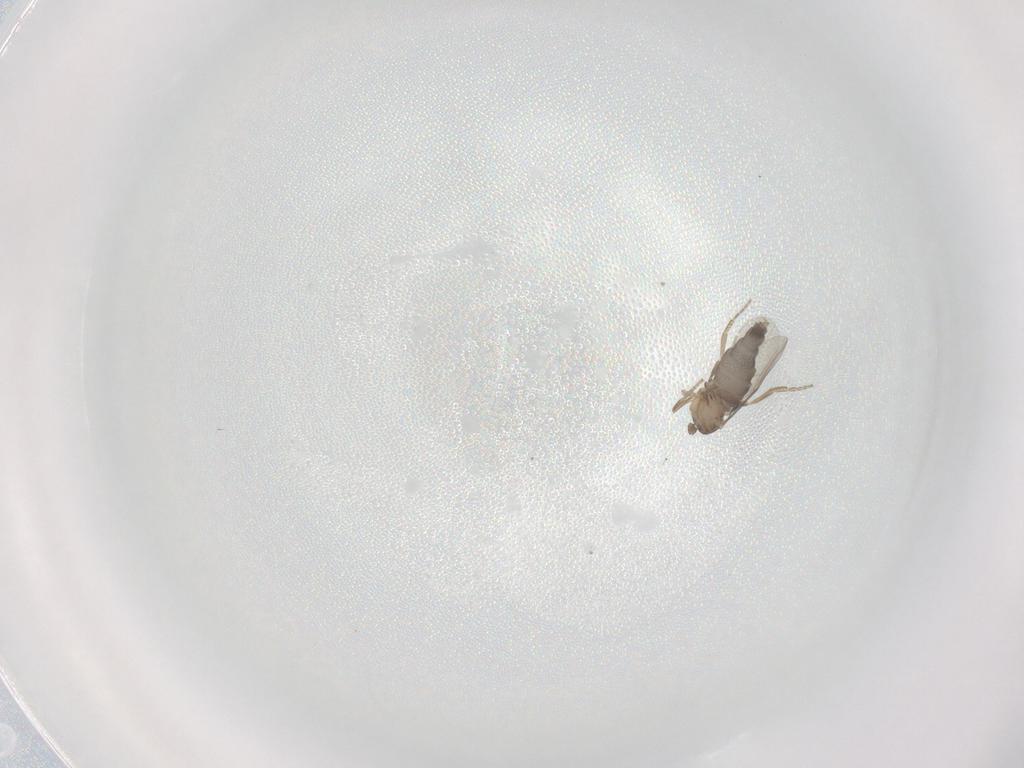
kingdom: Animalia
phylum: Arthropoda
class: Insecta
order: Diptera
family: Phoridae
